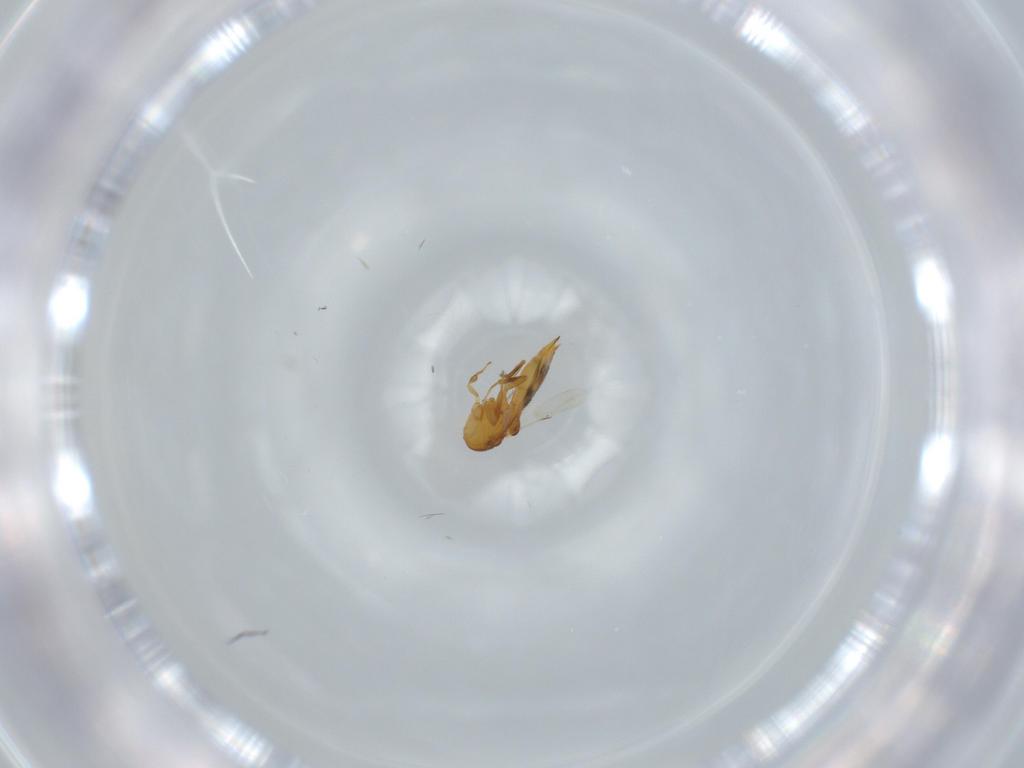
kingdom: Animalia
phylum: Arthropoda
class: Insecta
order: Hymenoptera
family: Scelionidae
